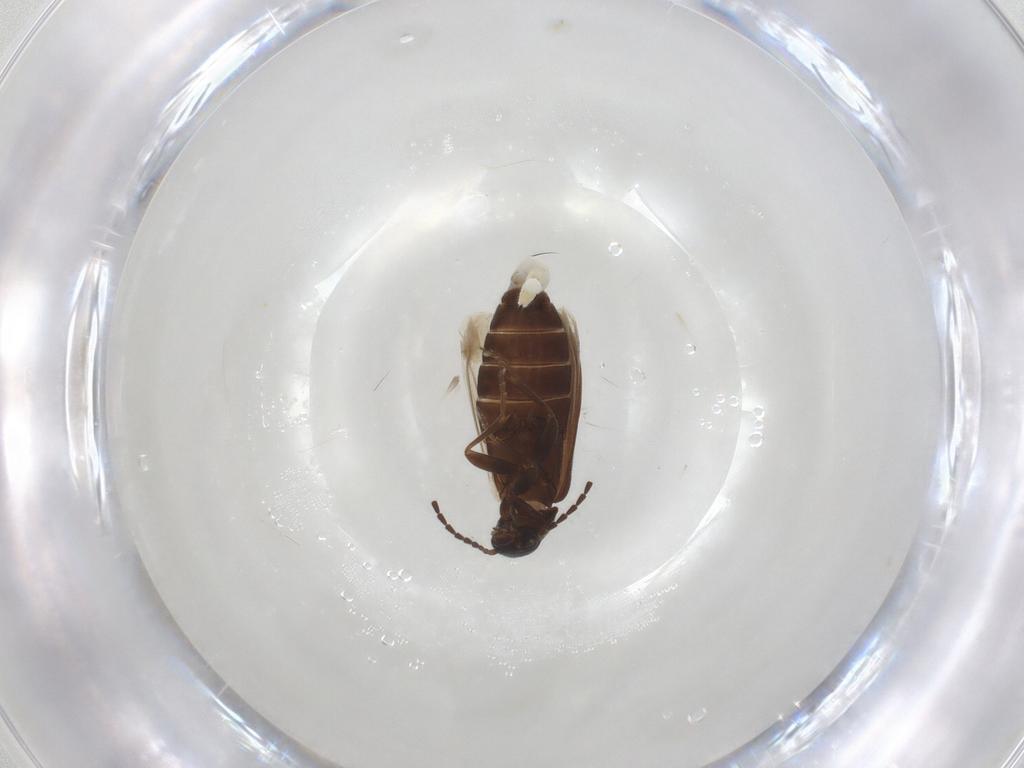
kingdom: Animalia
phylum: Arthropoda
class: Insecta
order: Coleoptera
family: Scraptiidae
